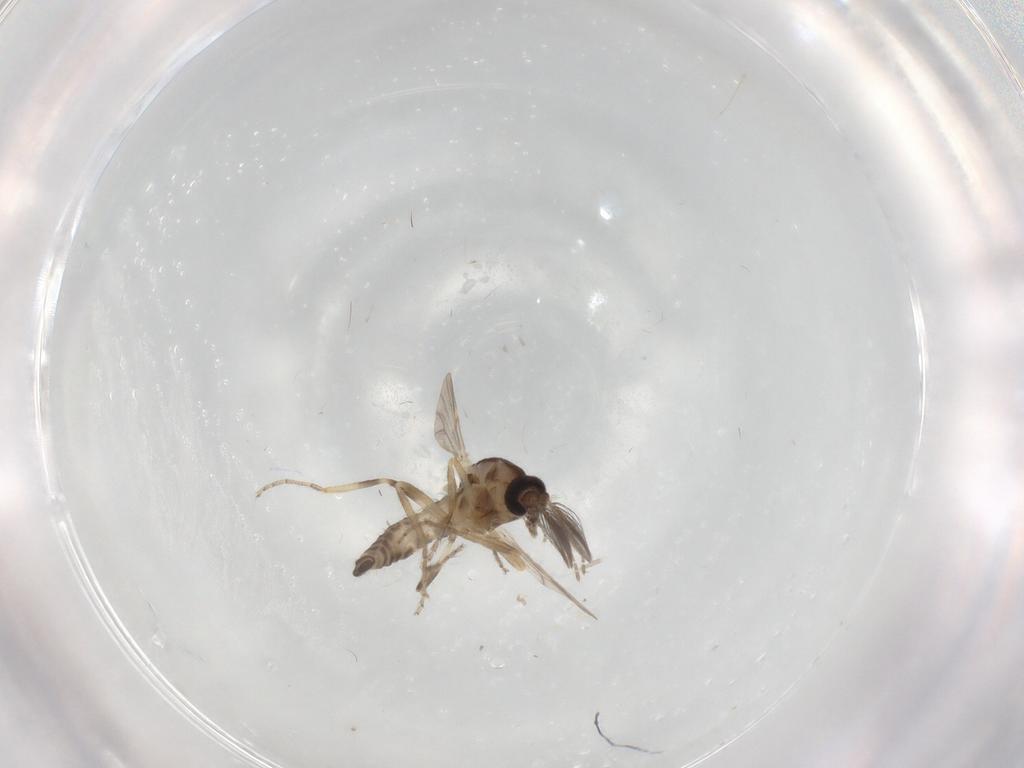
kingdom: Animalia
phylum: Arthropoda
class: Insecta
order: Diptera
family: Ceratopogonidae
